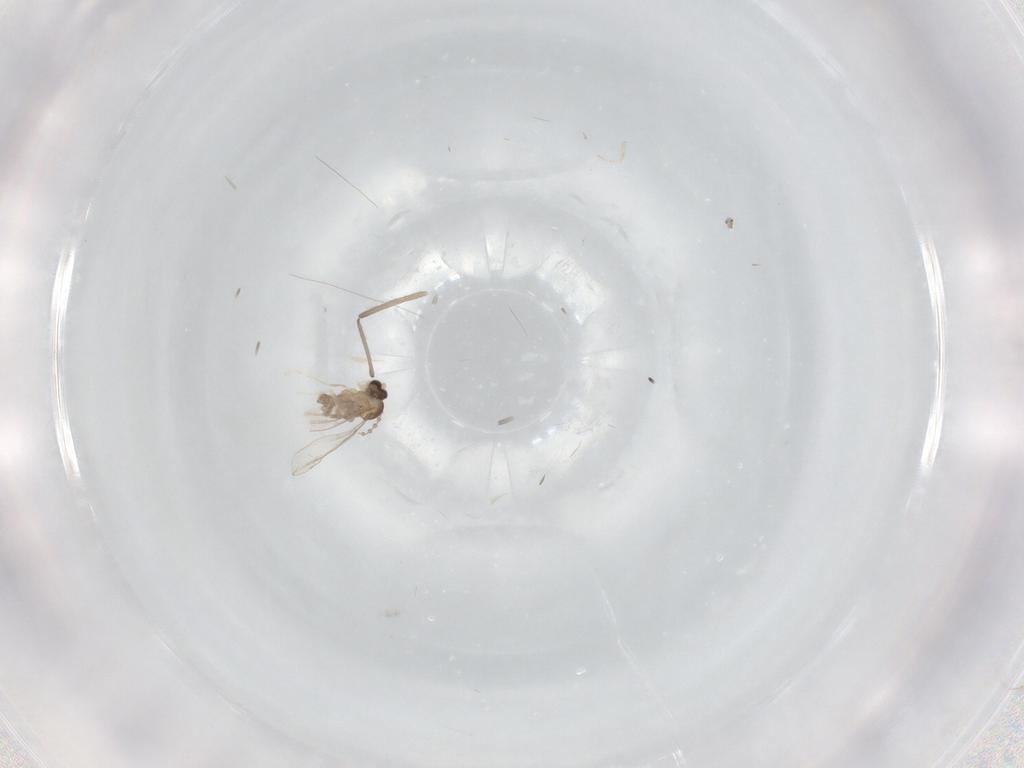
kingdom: Animalia
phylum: Arthropoda
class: Insecta
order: Diptera
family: Cecidomyiidae
